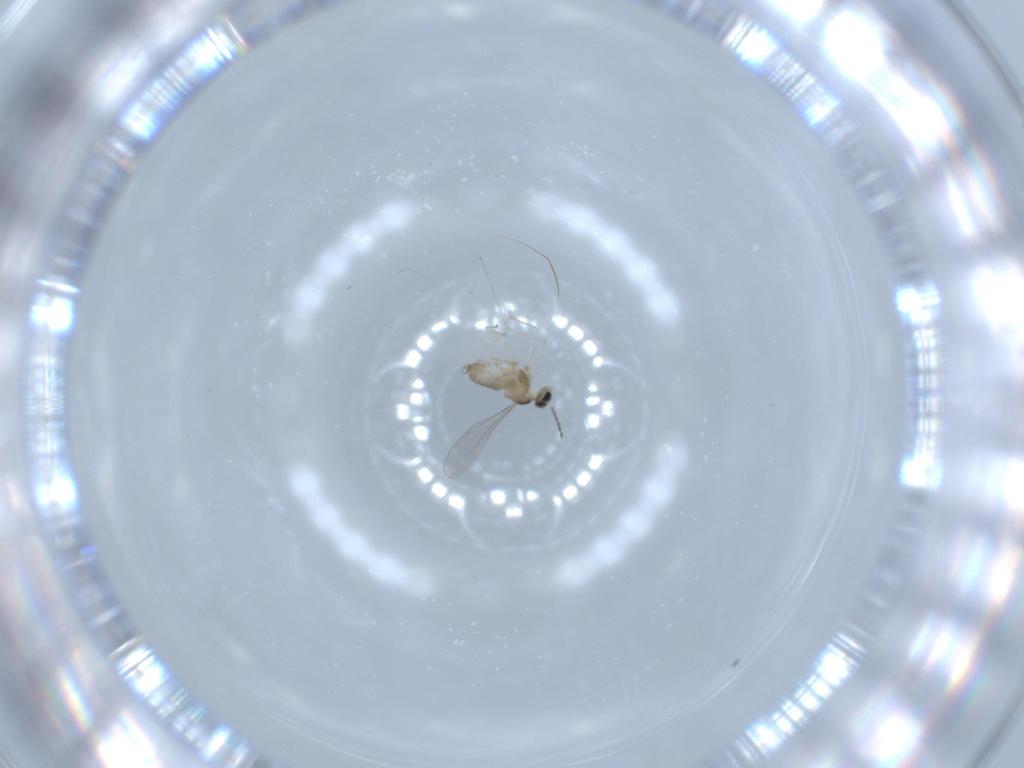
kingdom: Animalia
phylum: Arthropoda
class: Insecta
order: Diptera
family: Cecidomyiidae
